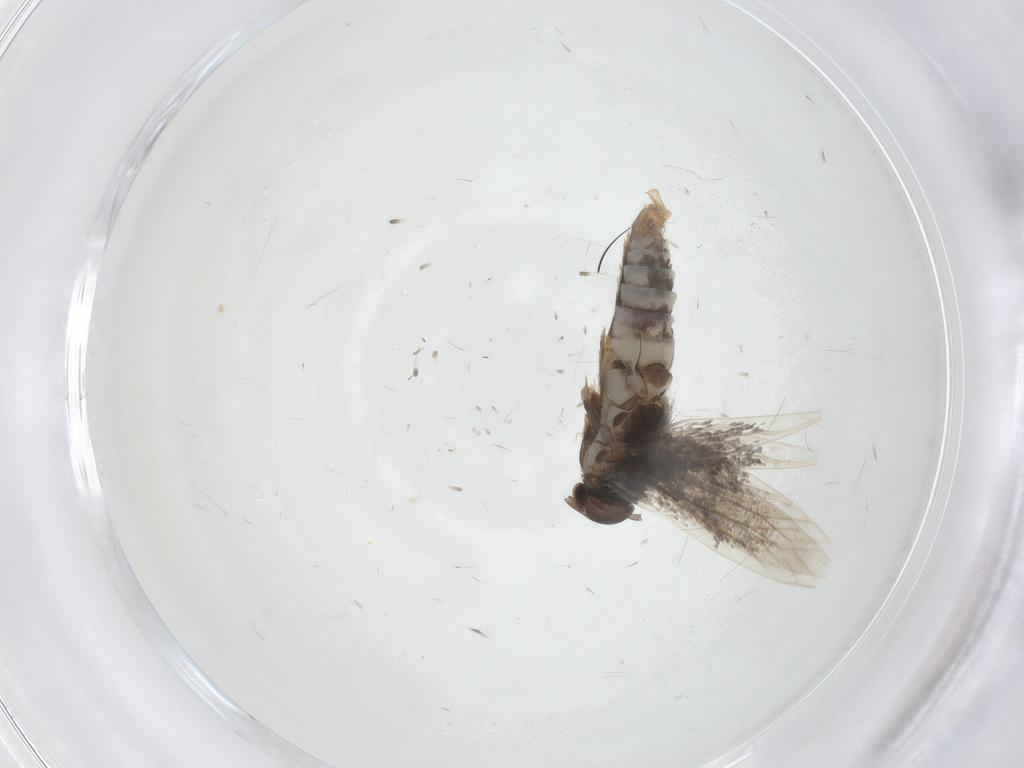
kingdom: Animalia
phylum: Arthropoda
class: Insecta
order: Lepidoptera
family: Elachistidae
